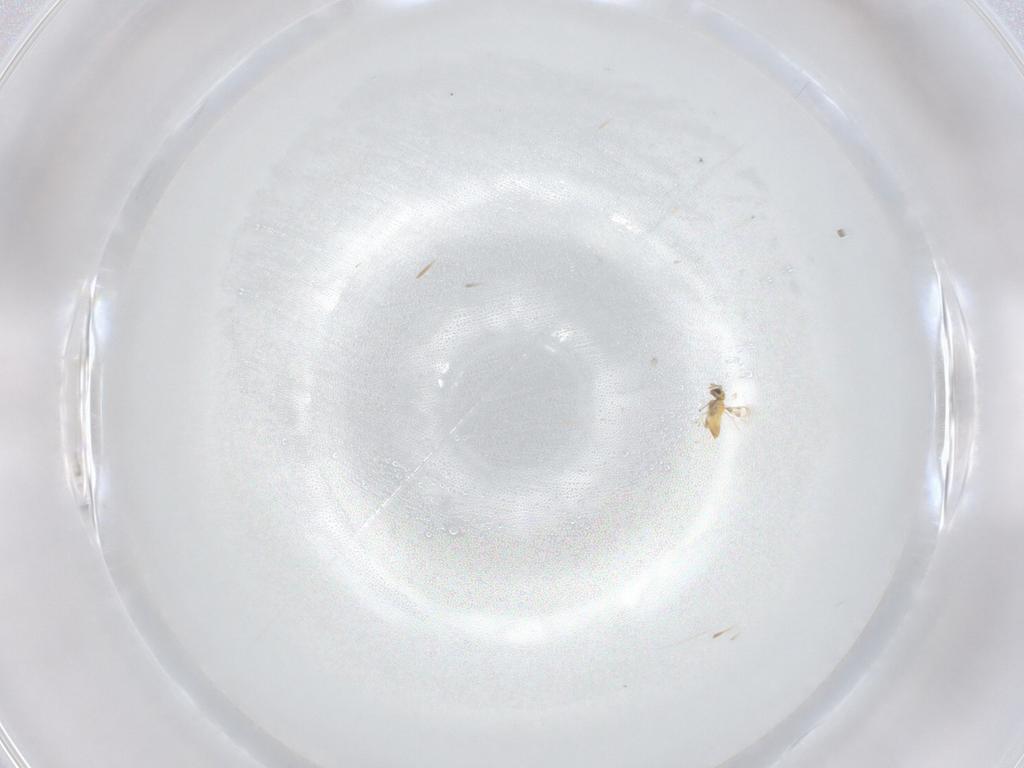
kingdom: Animalia
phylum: Arthropoda
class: Insecta
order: Hymenoptera
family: Trichogrammatidae
